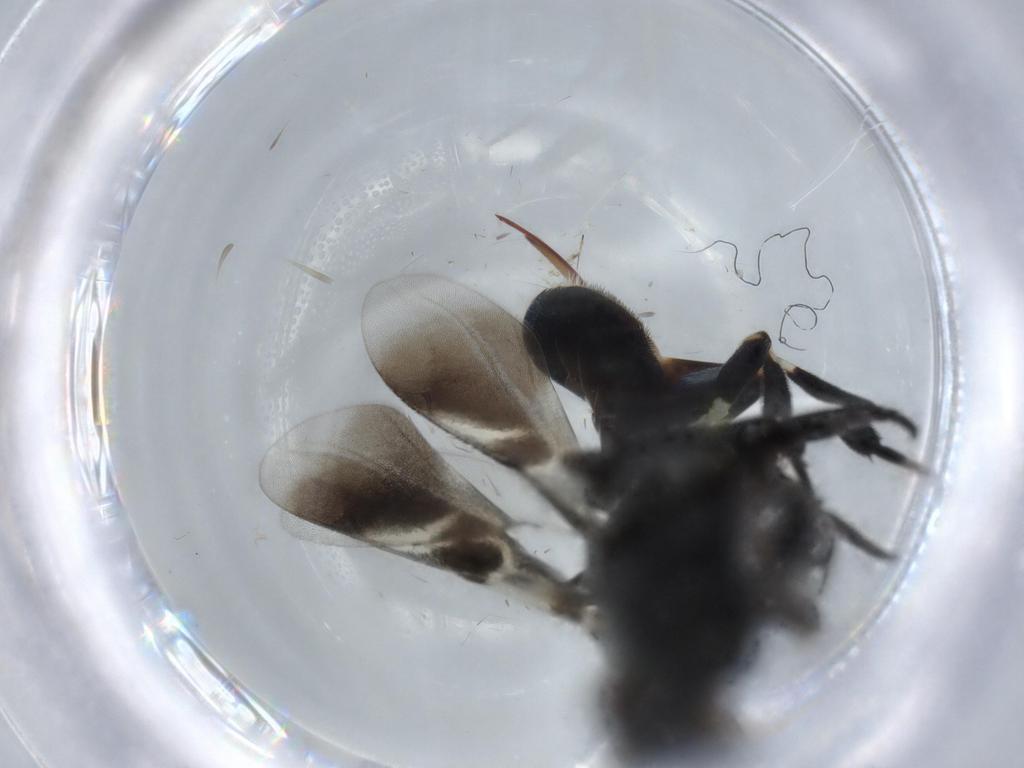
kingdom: Animalia
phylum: Arthropoda
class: Insecta
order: Hymenoptera
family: Eupelmidae
